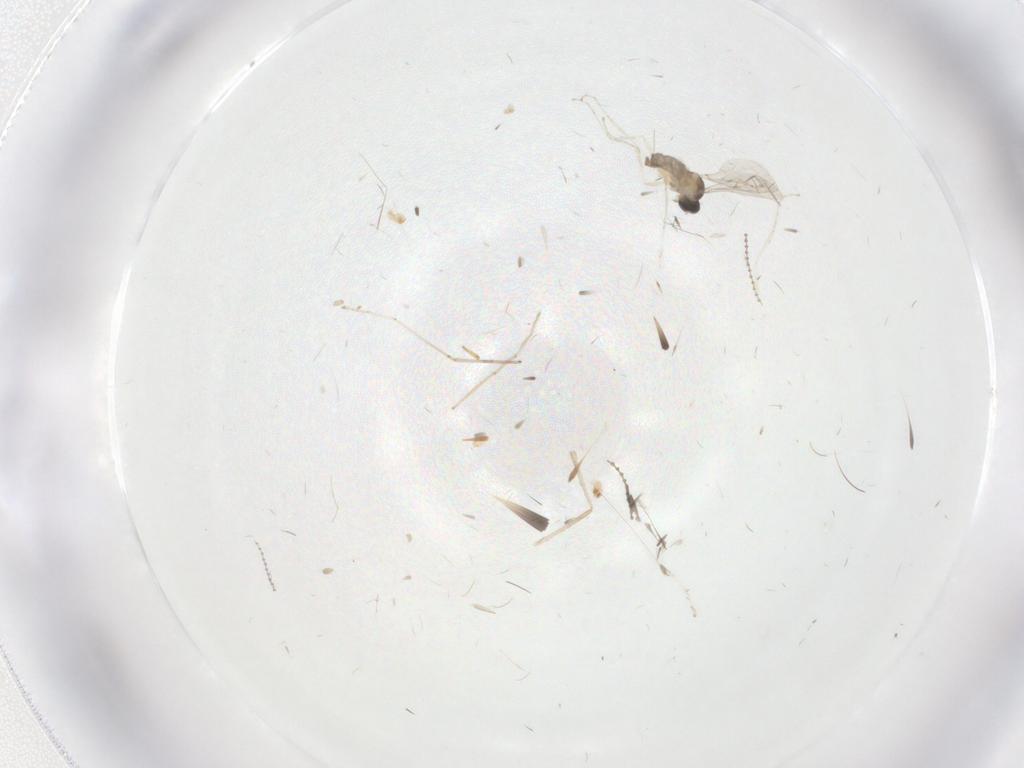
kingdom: Animalia
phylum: Arthropoda
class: Insecta
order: Diptera
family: Cecidomyiidae
